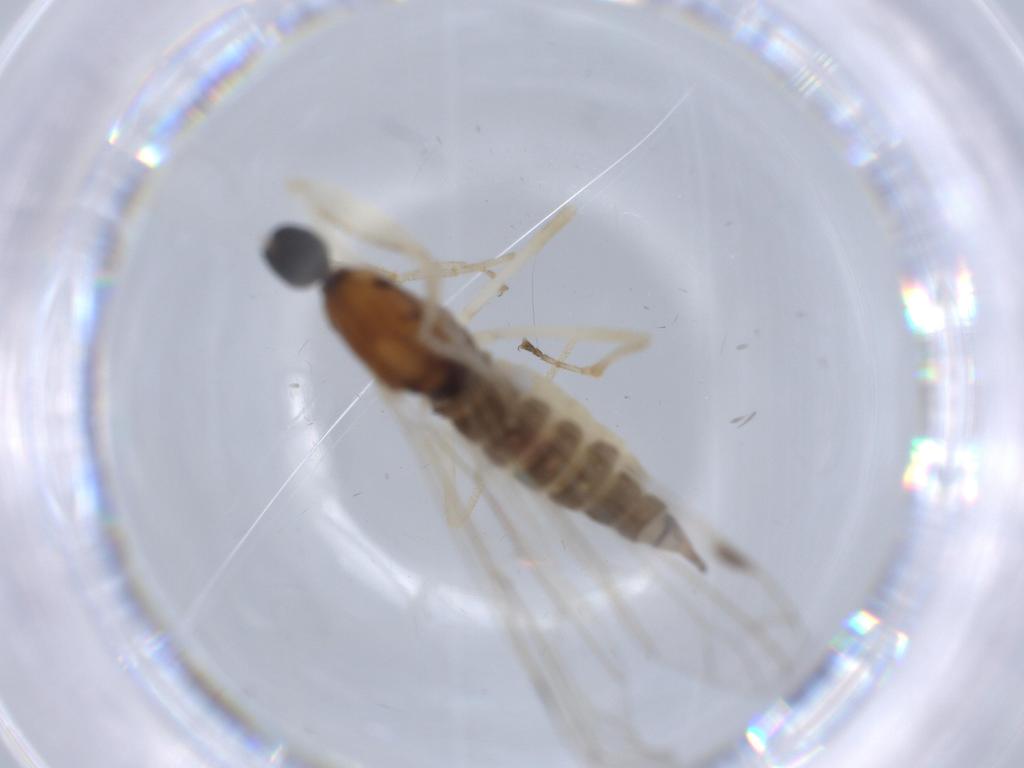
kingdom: Animalia
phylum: Arthropoda
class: Insecta
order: Diptera
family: Empididae
